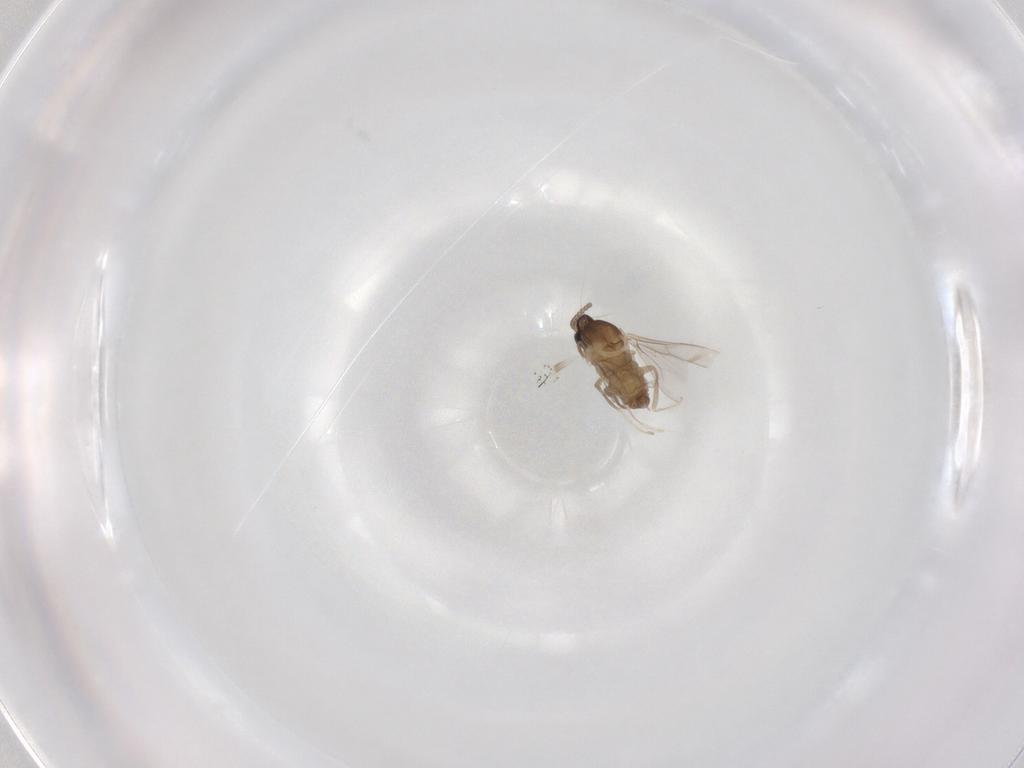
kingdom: Animalia
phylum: Arthropoda
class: Insecta
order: Diptera
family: Cecidomyiidae
